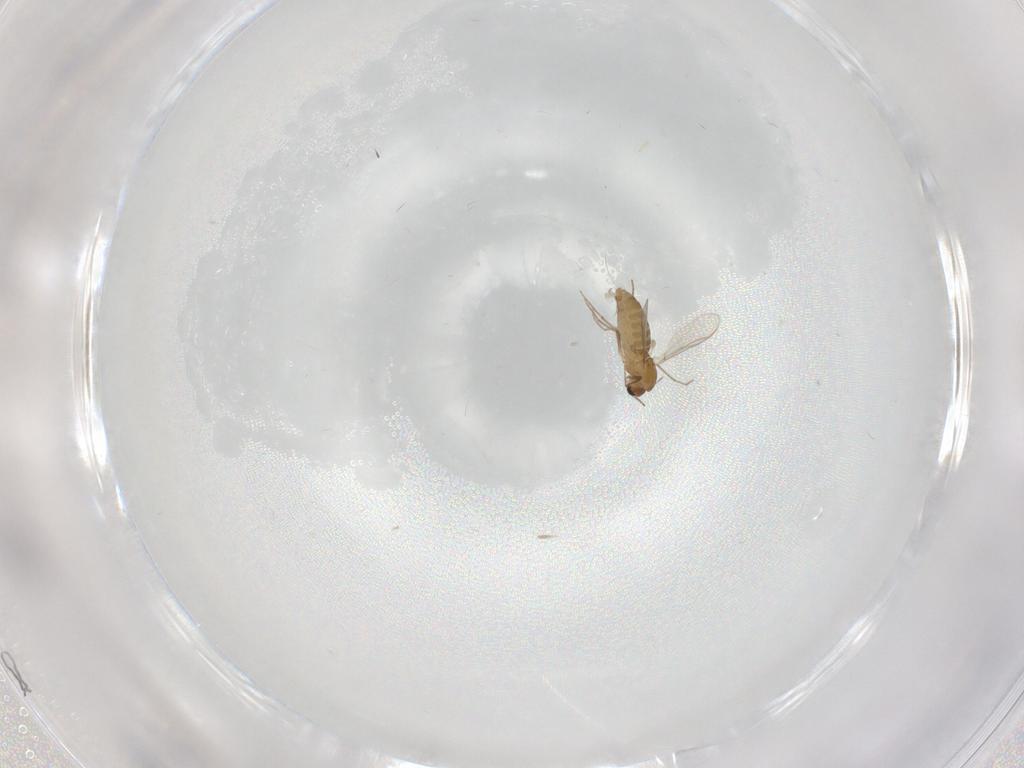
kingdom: Animalia
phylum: Arthropoda
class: Insecta
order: Diptera
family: Chironomidae
